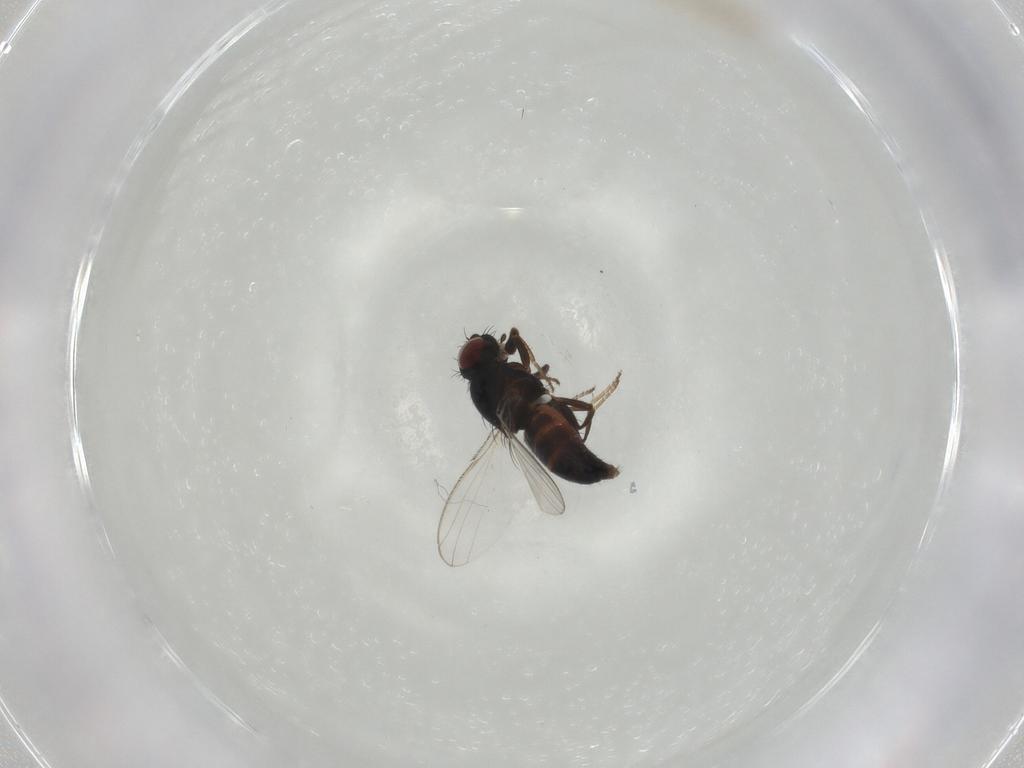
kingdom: Animalia
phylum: Arthropoda
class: Insecta
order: Diptera
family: Carnidae
